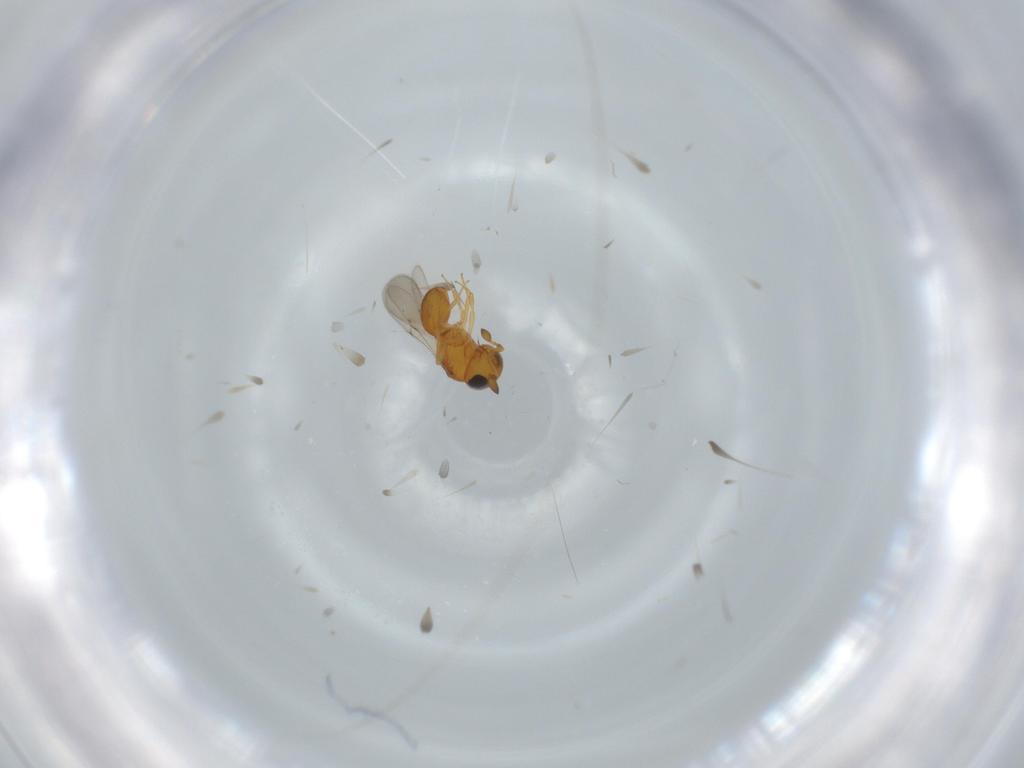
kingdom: Animalia
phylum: Arthropoda
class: Insecta
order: Hymenoptera
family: Scelionidae
